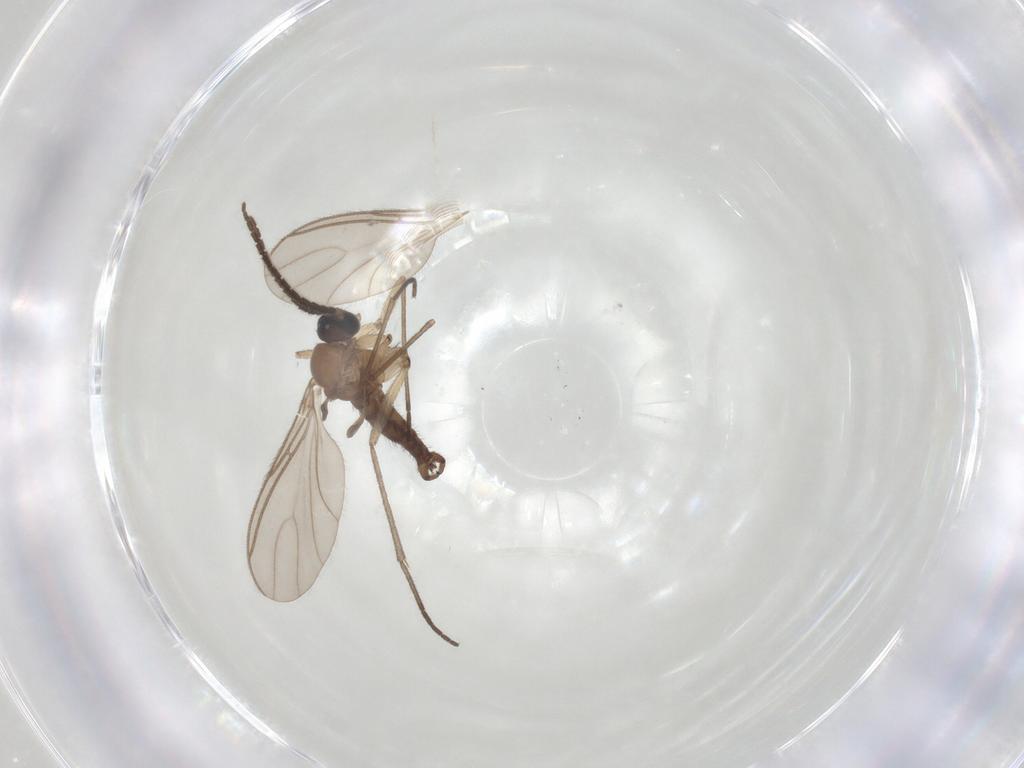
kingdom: Animalia
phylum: Arthropoda
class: Insecta
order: Diptera
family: Sciaridae
